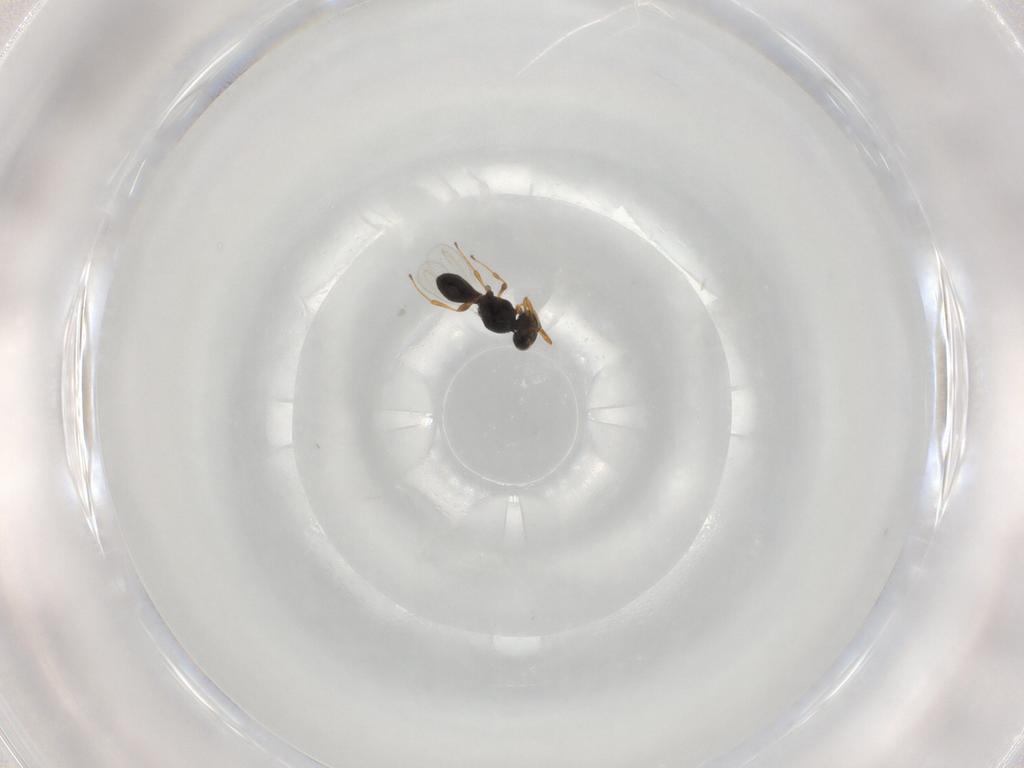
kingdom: Animalia
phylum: Arthropoda
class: Insecta
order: Hymenoptera
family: Platygastridae
